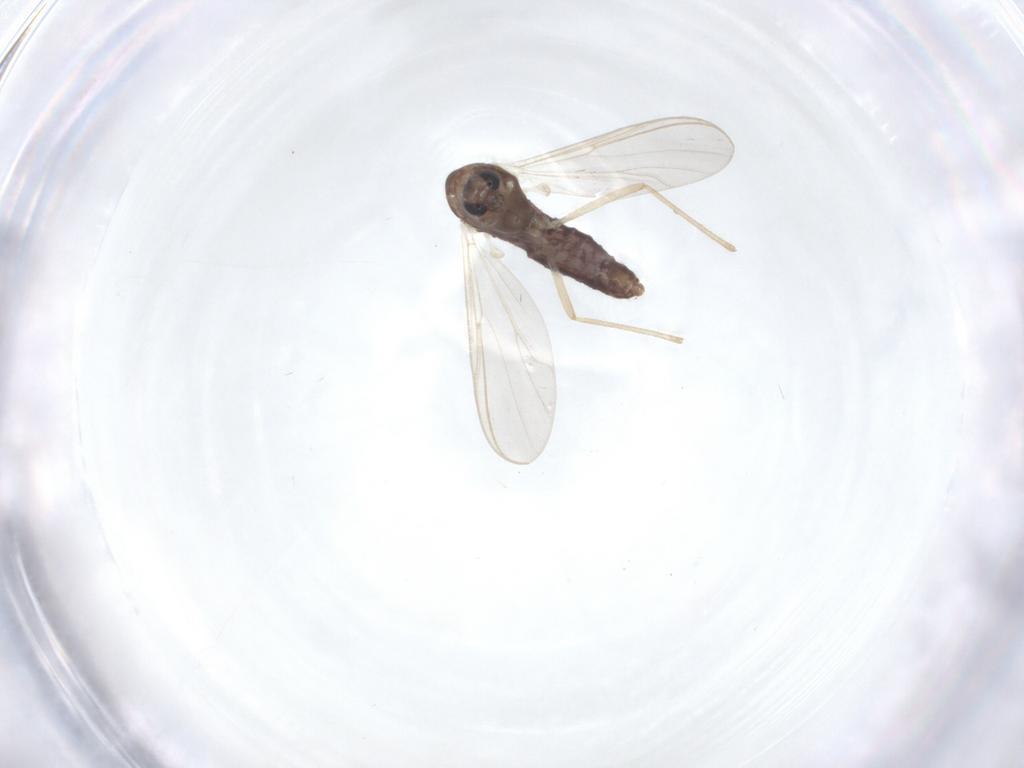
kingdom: Animalia
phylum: Arthropoda
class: Insecta
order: Diptera
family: Chironomidae
